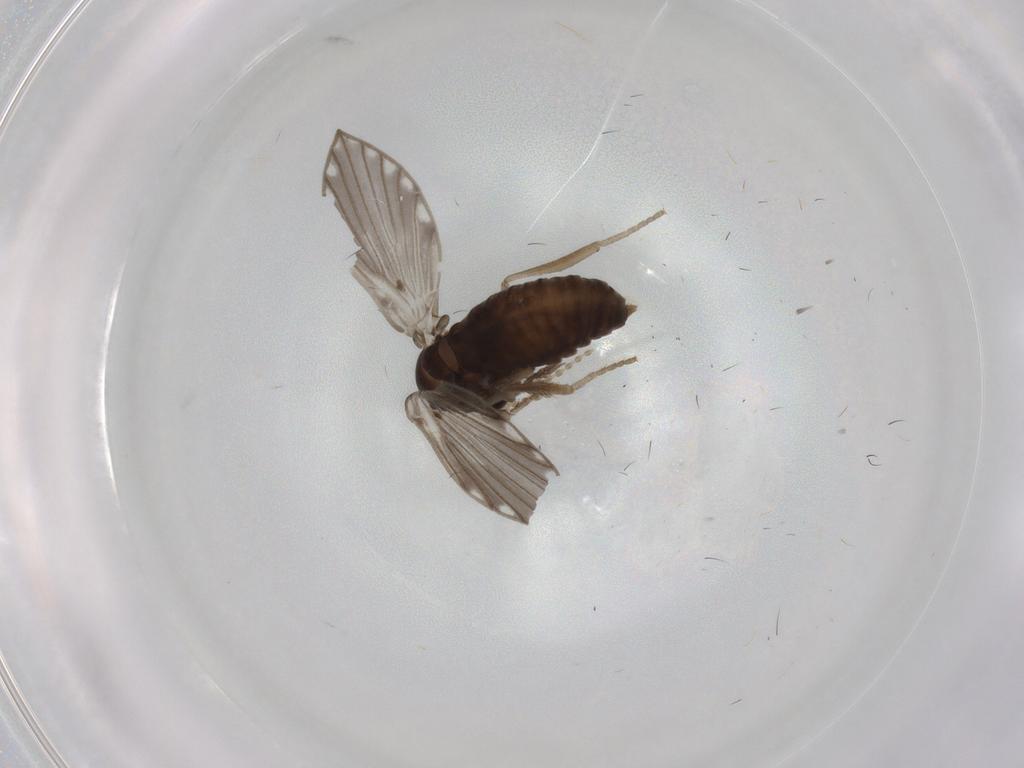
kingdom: Animalia
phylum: Arthropoda
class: Insecta
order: Diptera
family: Psychodidae
